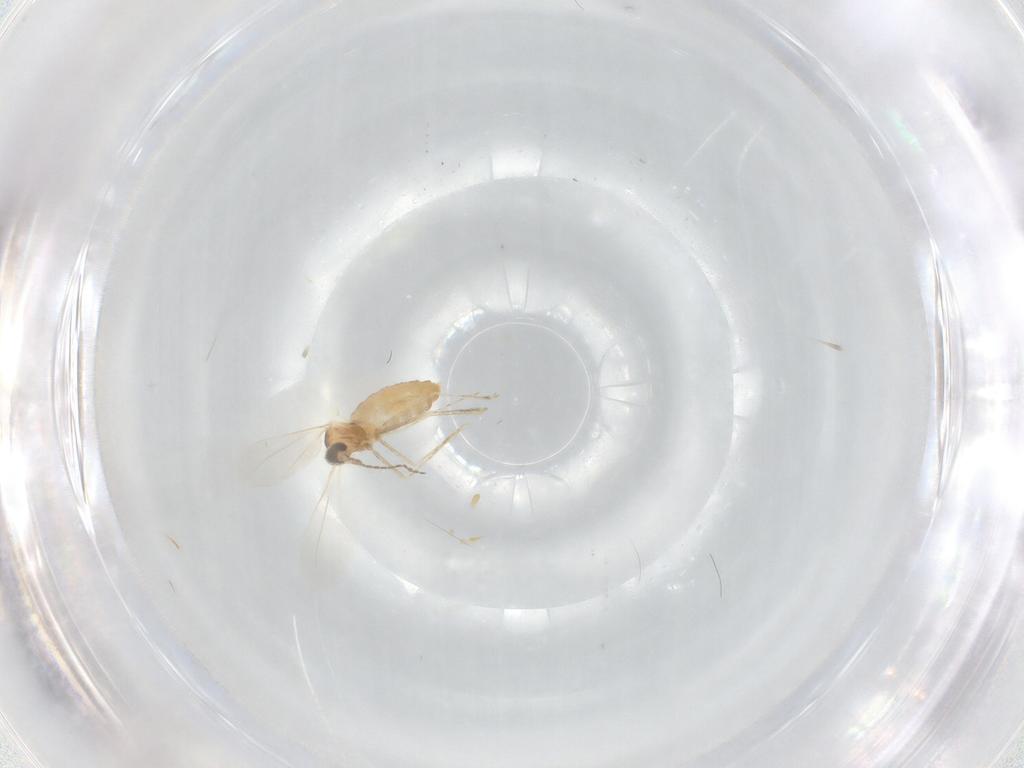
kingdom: Animalia
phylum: Arthropoda
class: Insecta
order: Diptera
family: Cecidomyiidae
